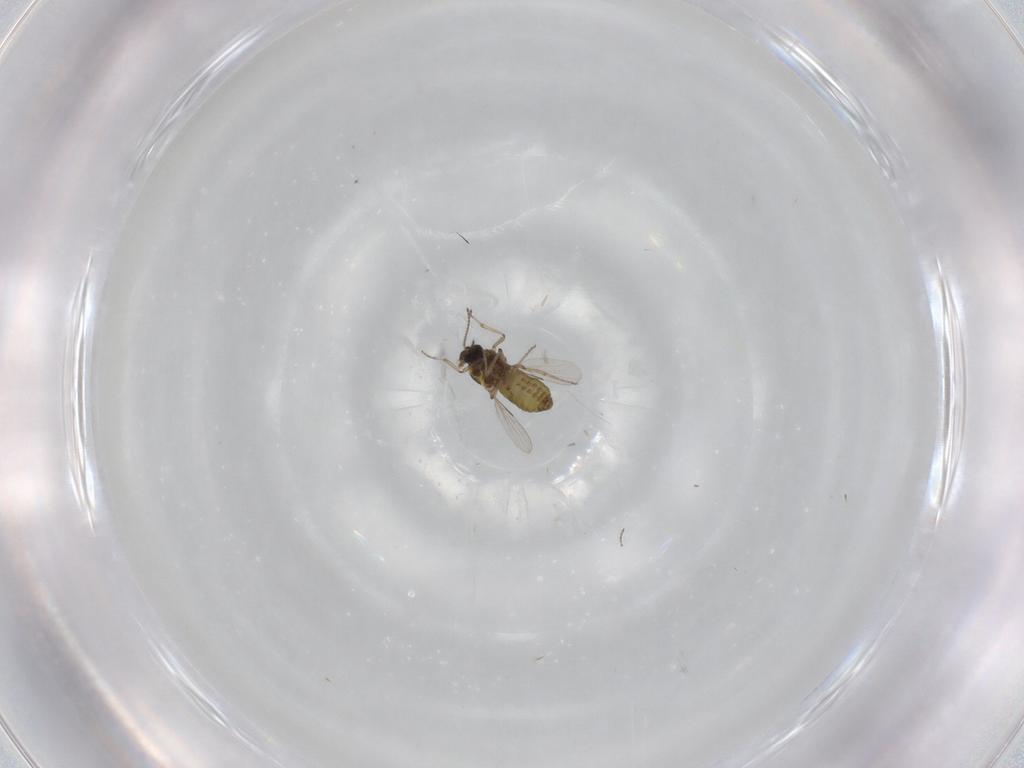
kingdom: Animalia
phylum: Arthropoda
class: Insecta
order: Diptera
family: Ceratopogonidae
